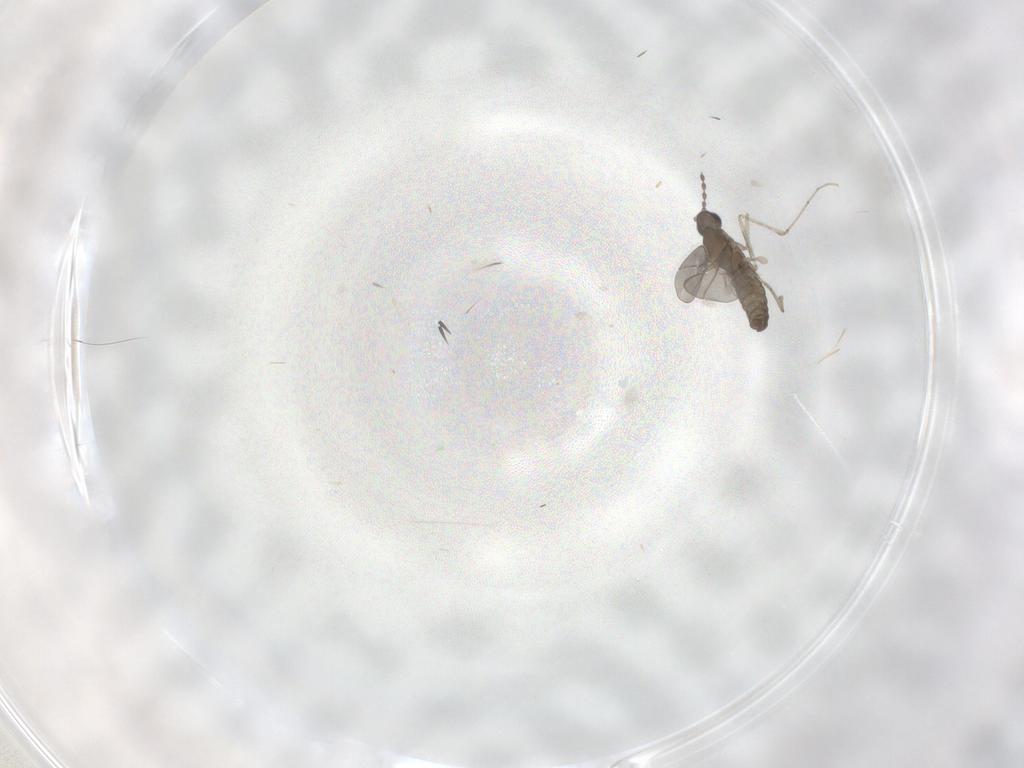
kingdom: Animalia
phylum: Arthropoda
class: Insecta
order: Diptera
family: Cecidomyiidae
